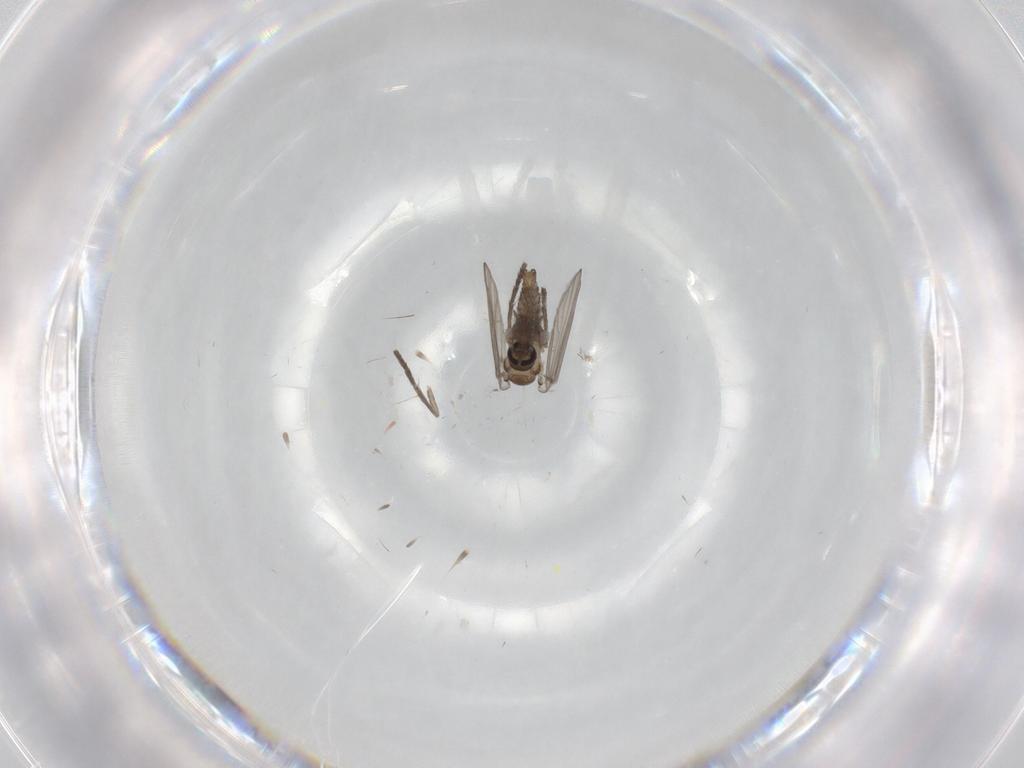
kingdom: Animalia
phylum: Arthropoda
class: Insecta
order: Diptera
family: Psychodidae
